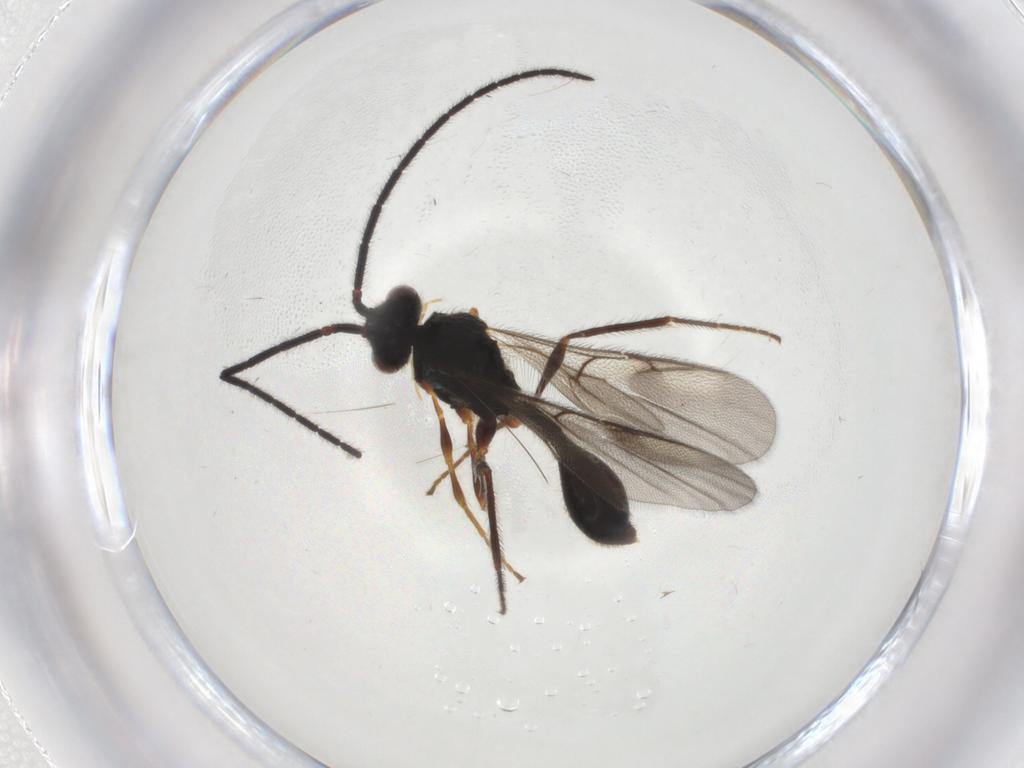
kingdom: Animalia
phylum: Arthropoda
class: Insecta
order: Hymenoptera
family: Diapriidae
